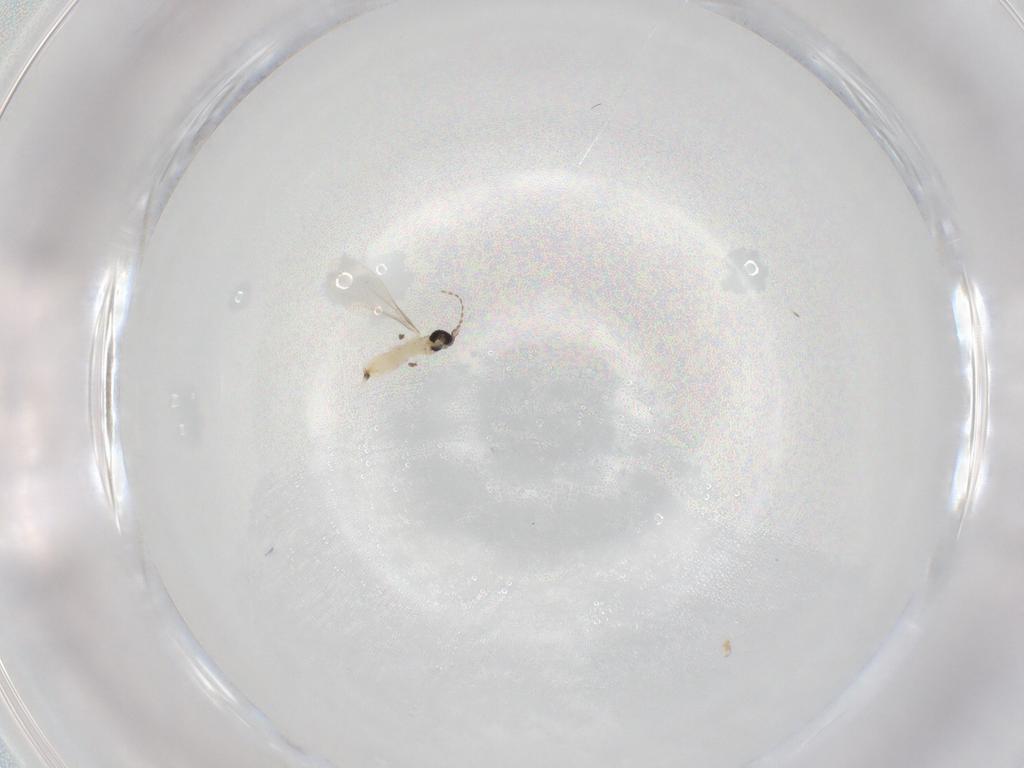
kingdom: Animalia
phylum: Arthropoda
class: Insecta
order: Diptera
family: Cecidomyiidae
